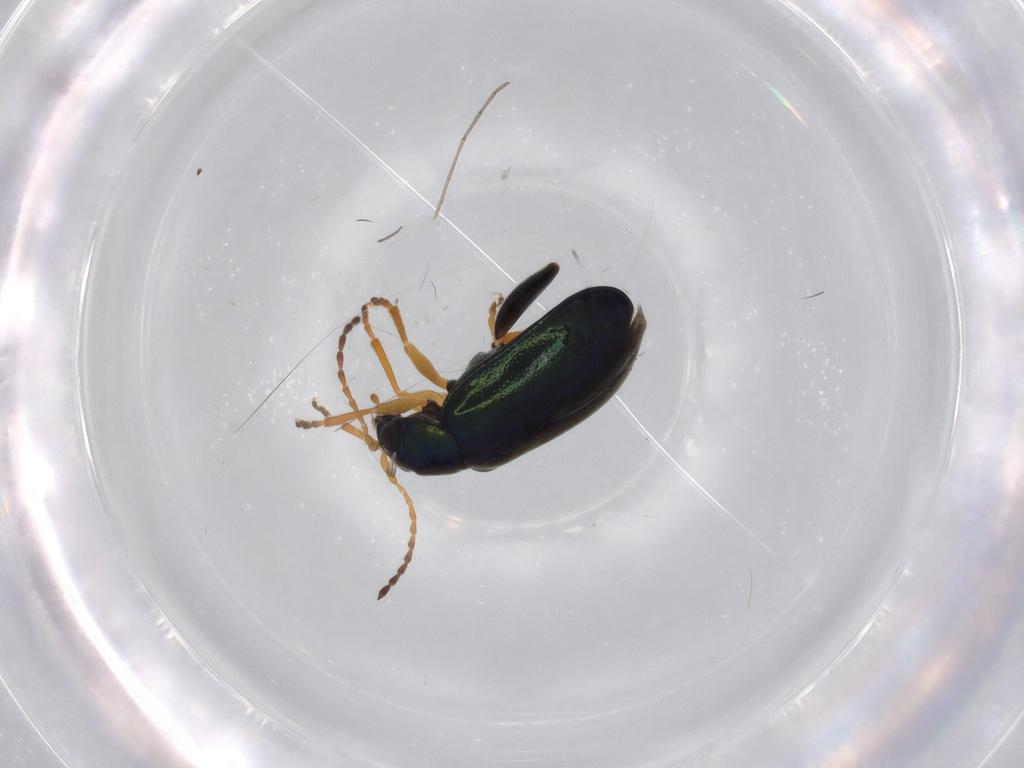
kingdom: Animalia
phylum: Arthropoda
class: Insecta
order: Coleoptera
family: Chrysomelidae
